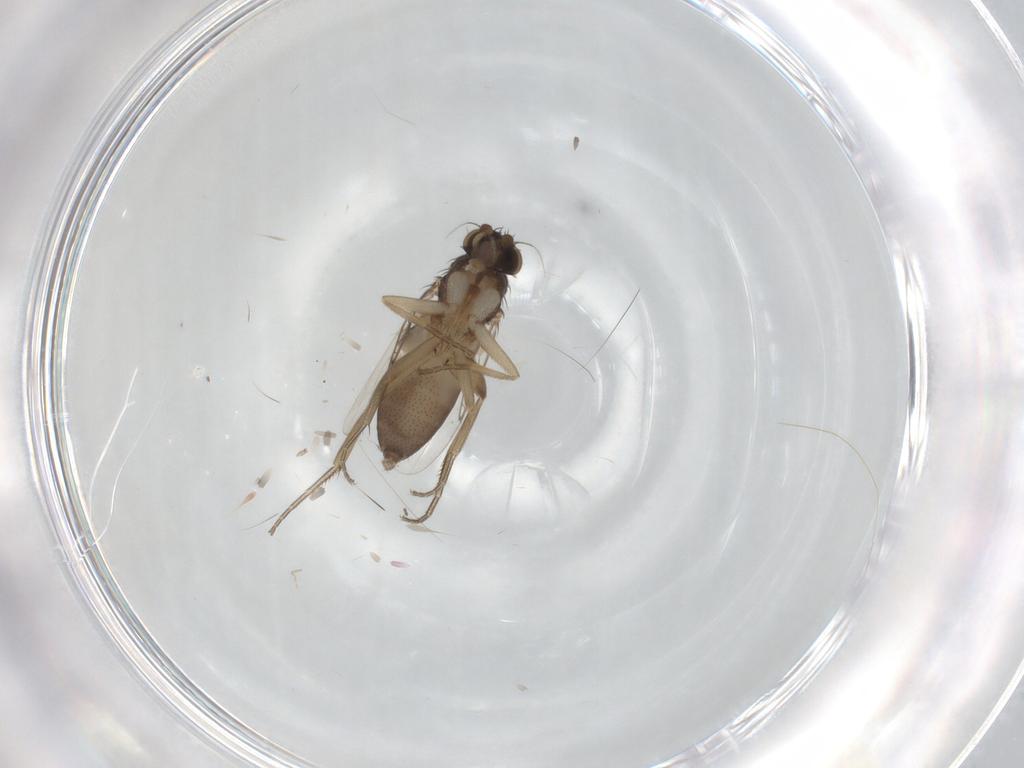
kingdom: Animalia
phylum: Arthropoda
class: Insecta
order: Diptera
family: Phoridae
